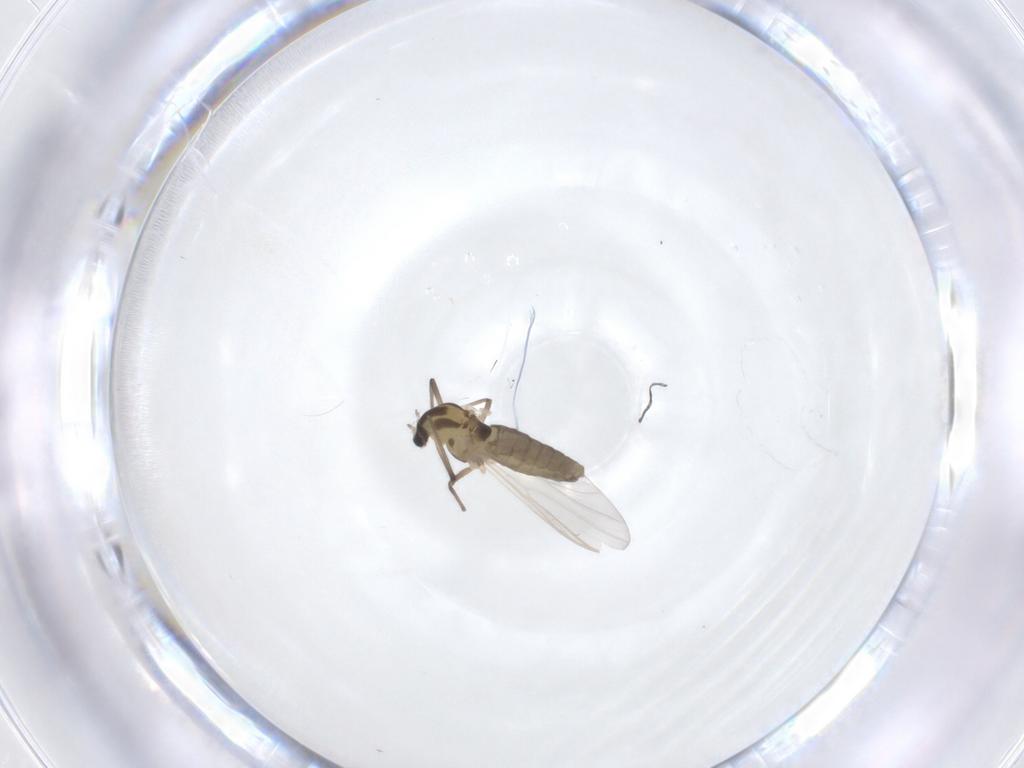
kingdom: Animalia
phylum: Arthropoda
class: Insecta
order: Diptera
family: Chironomidae
